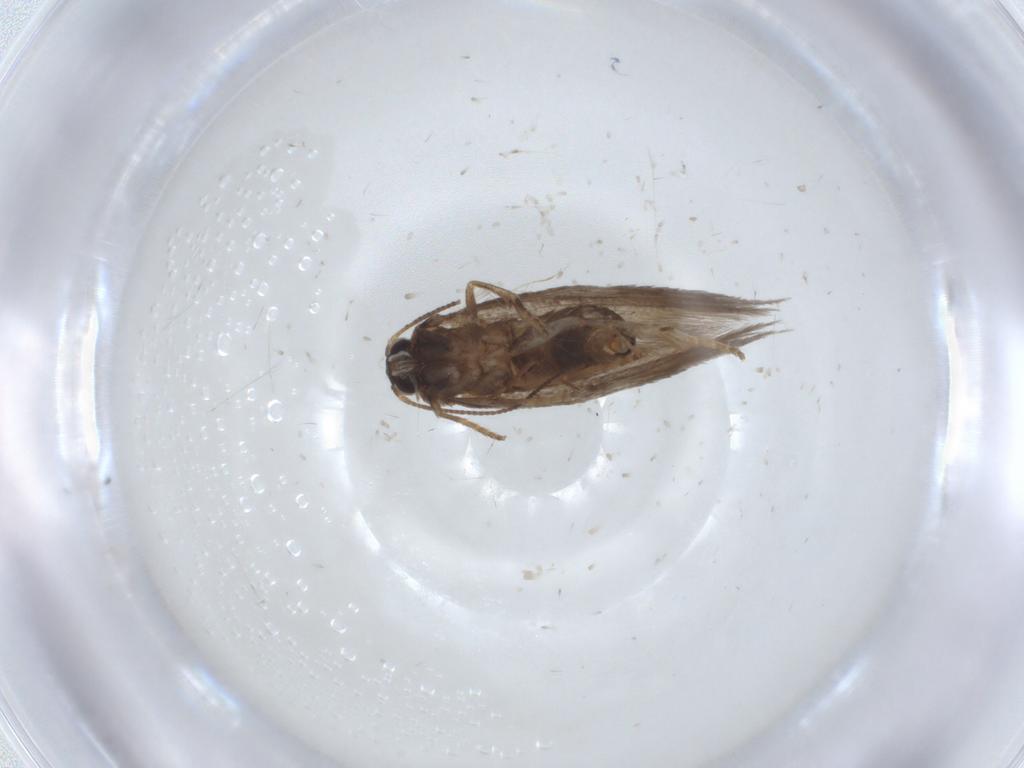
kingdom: Animalia
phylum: Arthropoda
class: Insecta
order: Lepidoptera
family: Nepticulidae
